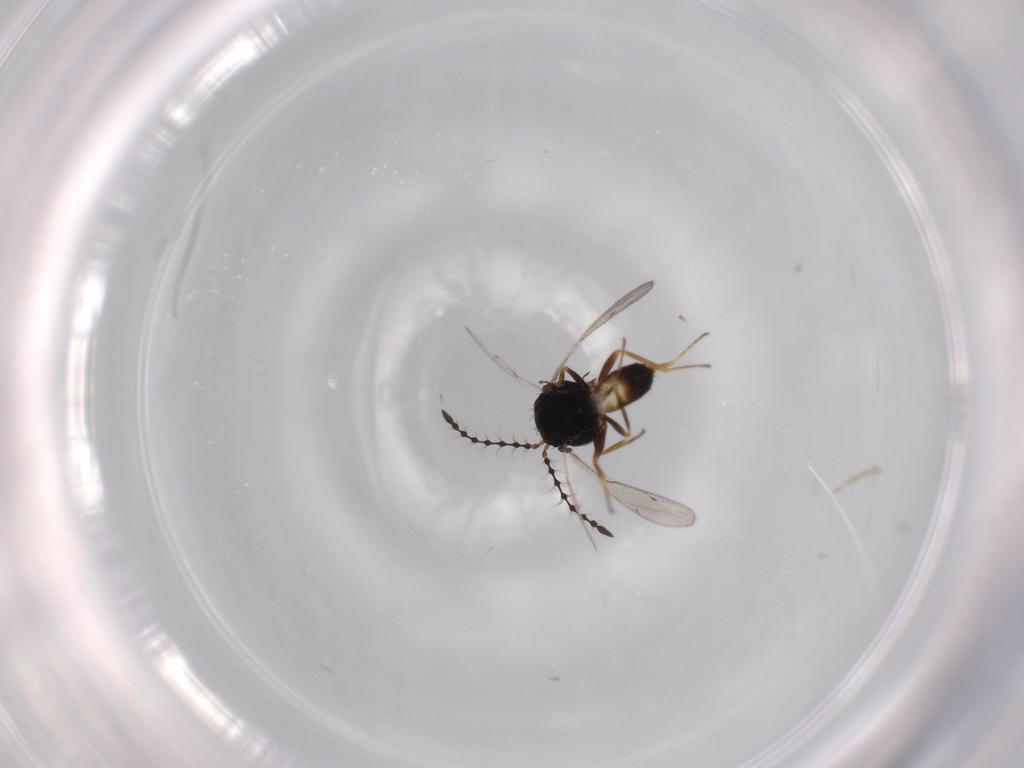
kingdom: Animalia
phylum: Arthropoda
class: Insecta
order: Hymenoptera
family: Pteromalidae
